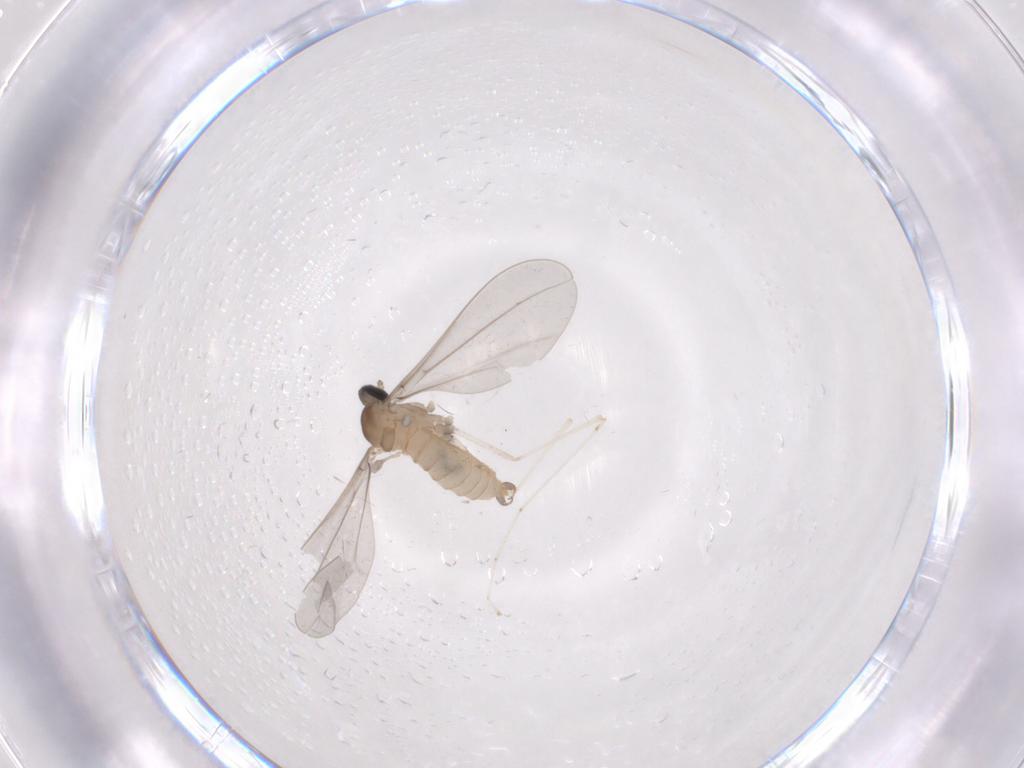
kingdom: Animalia
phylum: Arthropoda
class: Insecta
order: Diptera
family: Cecidomyiidae
